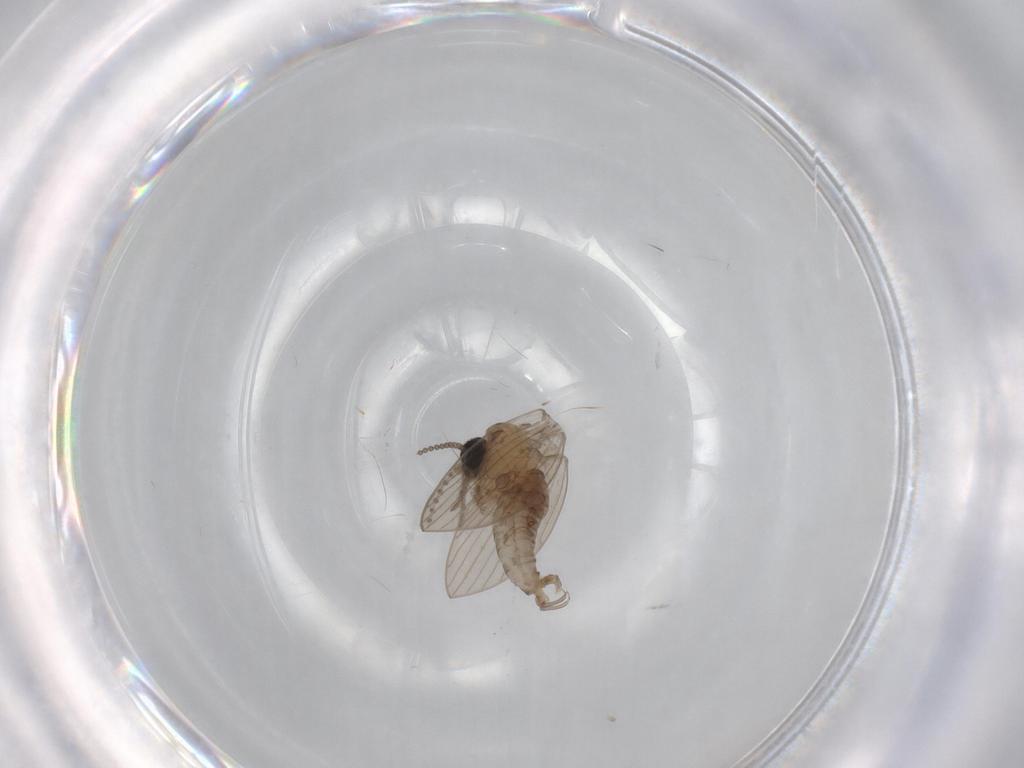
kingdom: Animalia
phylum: Arthropoda
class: Insecta
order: Diptera
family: Psychodidae
